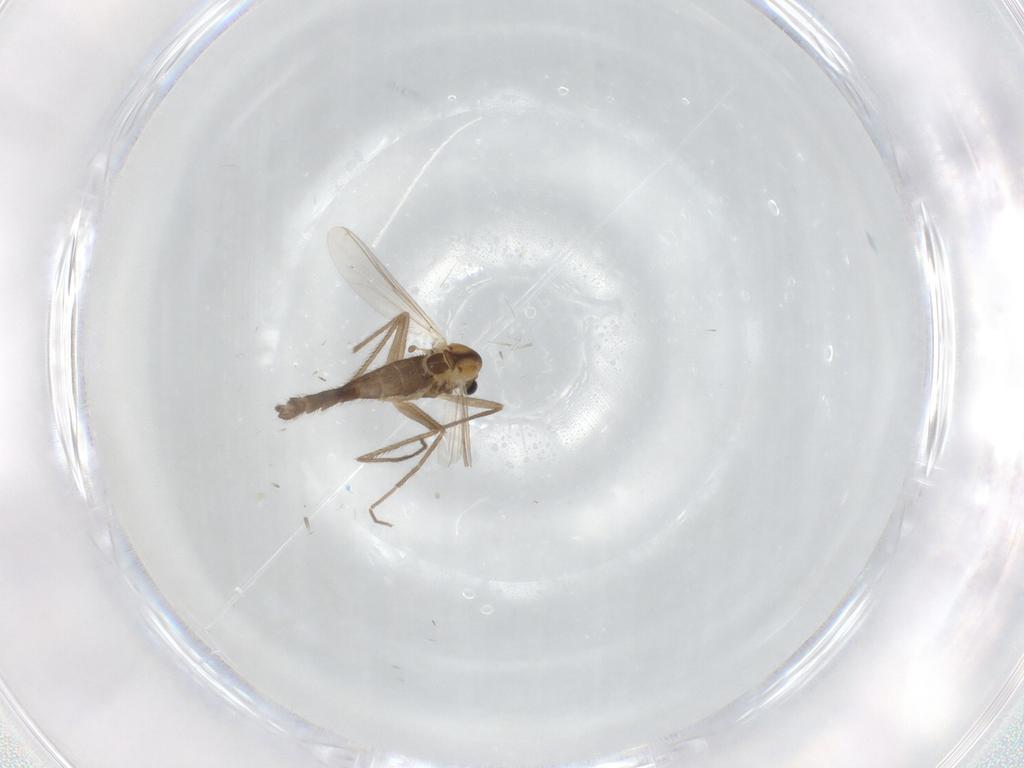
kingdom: Animalia
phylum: Arthropoda
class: Insecta
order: Diptera
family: Chironomidae
